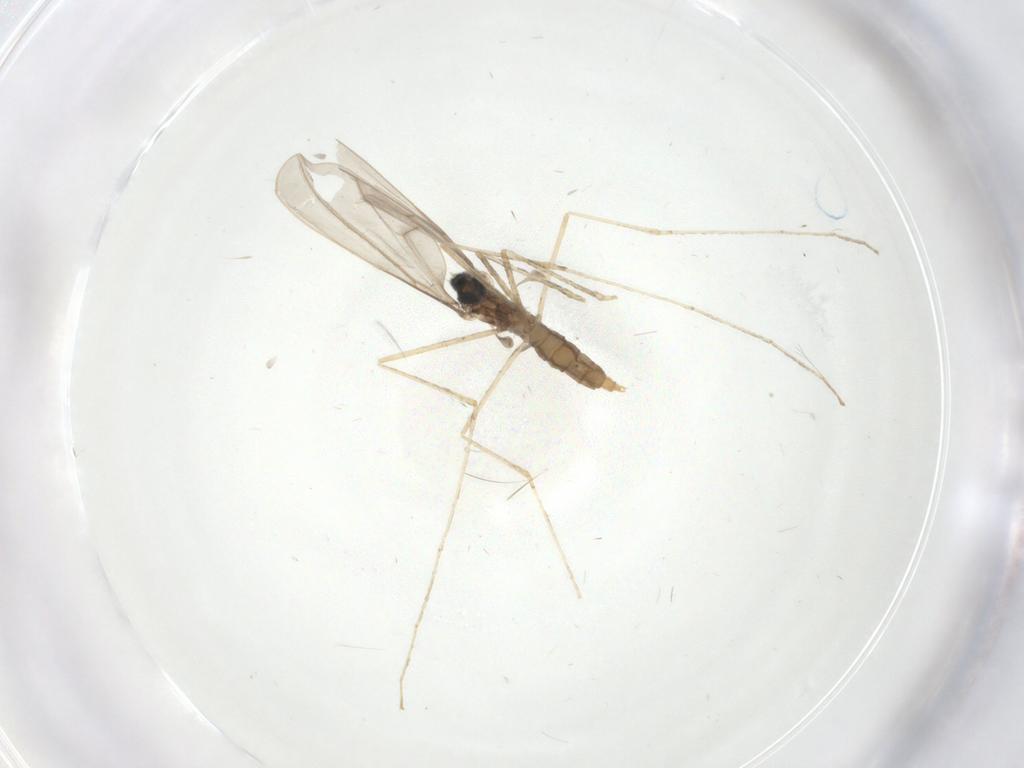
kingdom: Animalia
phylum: Arthropoda
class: Insecta
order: Diptera
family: Cecidomyiidae
